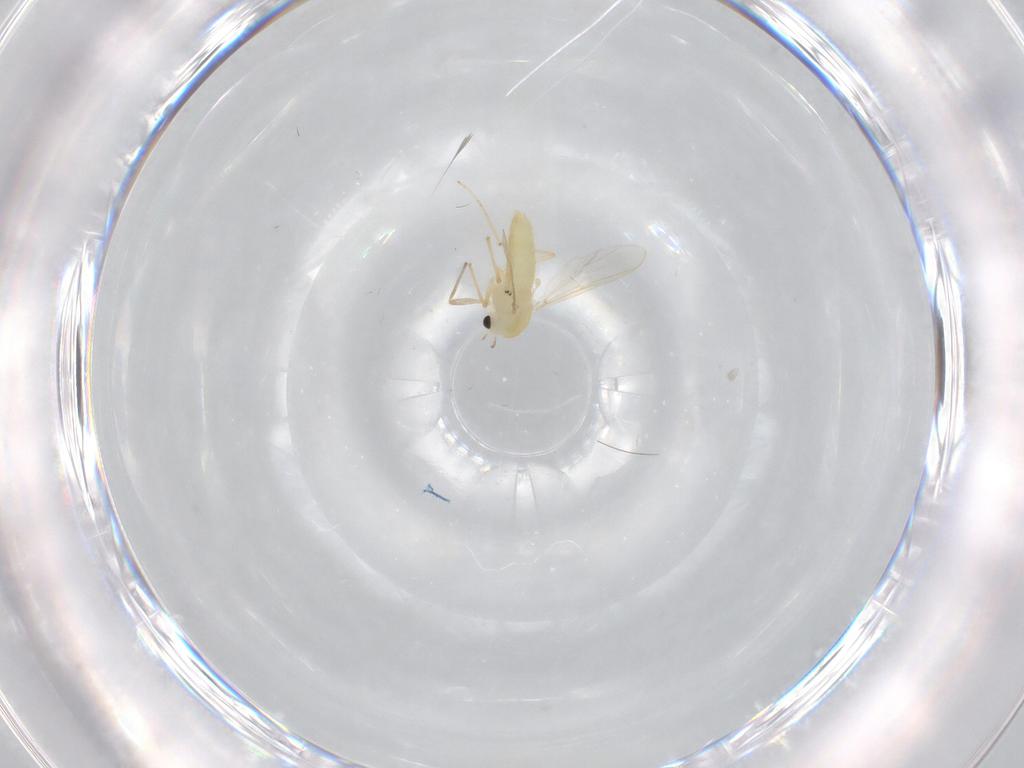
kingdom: Animalia
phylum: Arthropoda
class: Insecta
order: Diptera
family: Chironomidae
